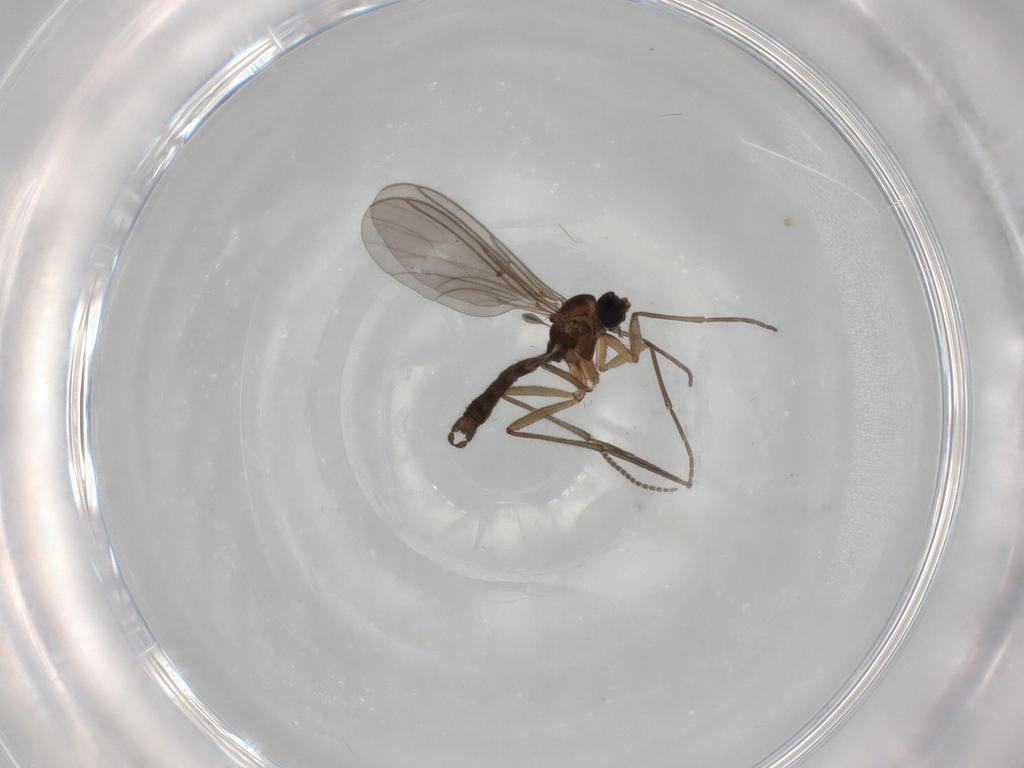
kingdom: Animalia
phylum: Arthropoda
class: Insecta
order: Diptera
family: Sciaridae
